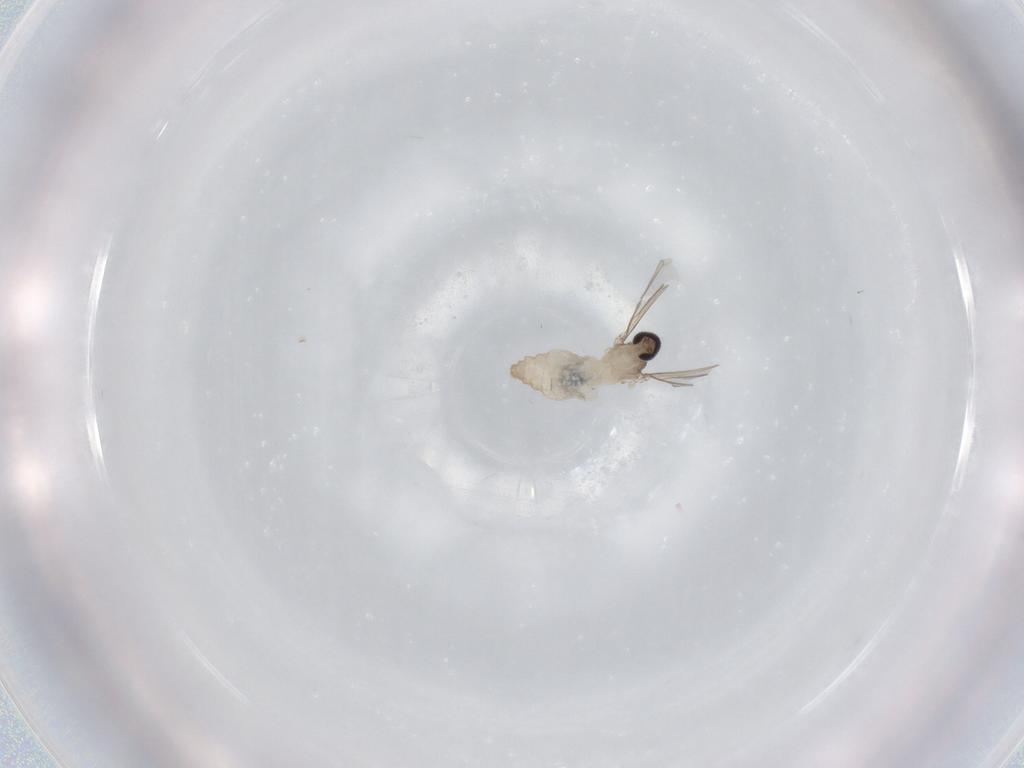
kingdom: Animalia
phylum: Arthropoda
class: Insecta
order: Diptera
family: Cecidomyiidae
